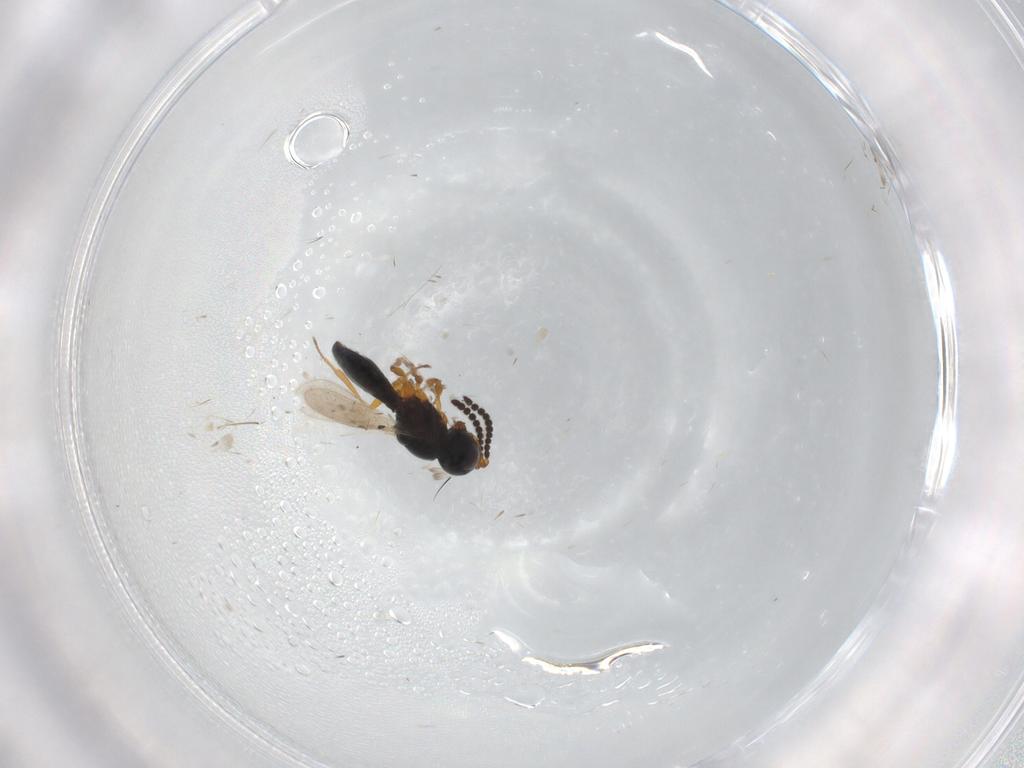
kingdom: Animalia
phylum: Arthropoda
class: Insecta
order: Hymenoptera
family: Scelionidae
